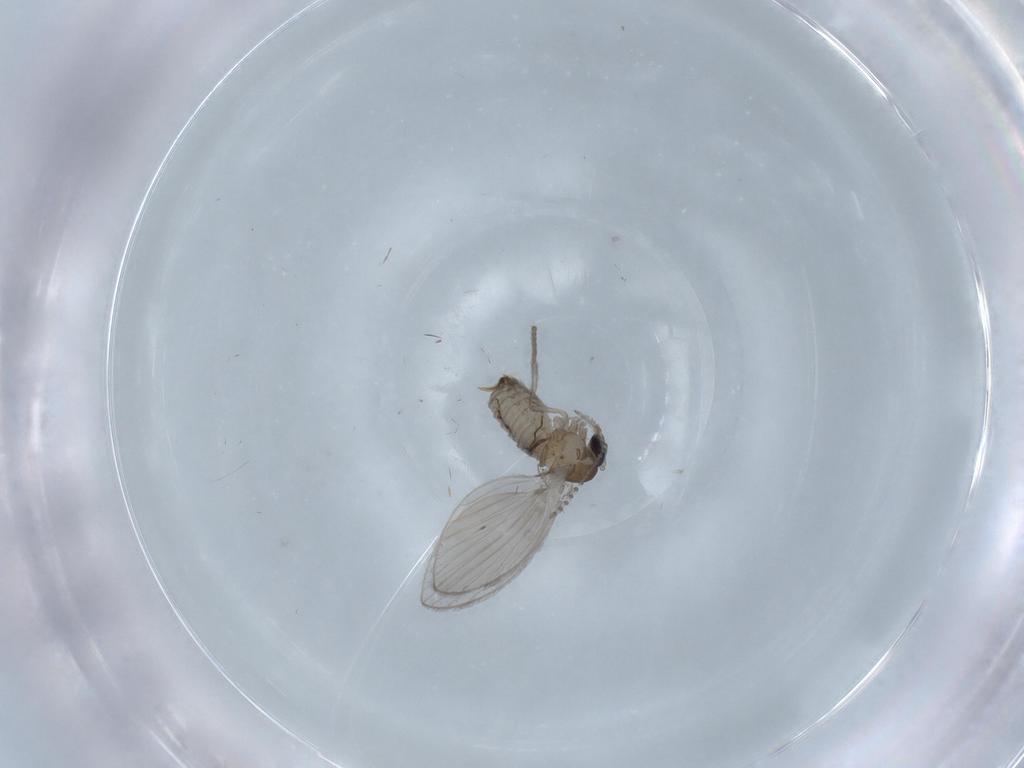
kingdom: Animalia
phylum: Arthropoda
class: Insecta
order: Diptera
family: Psychodidae
